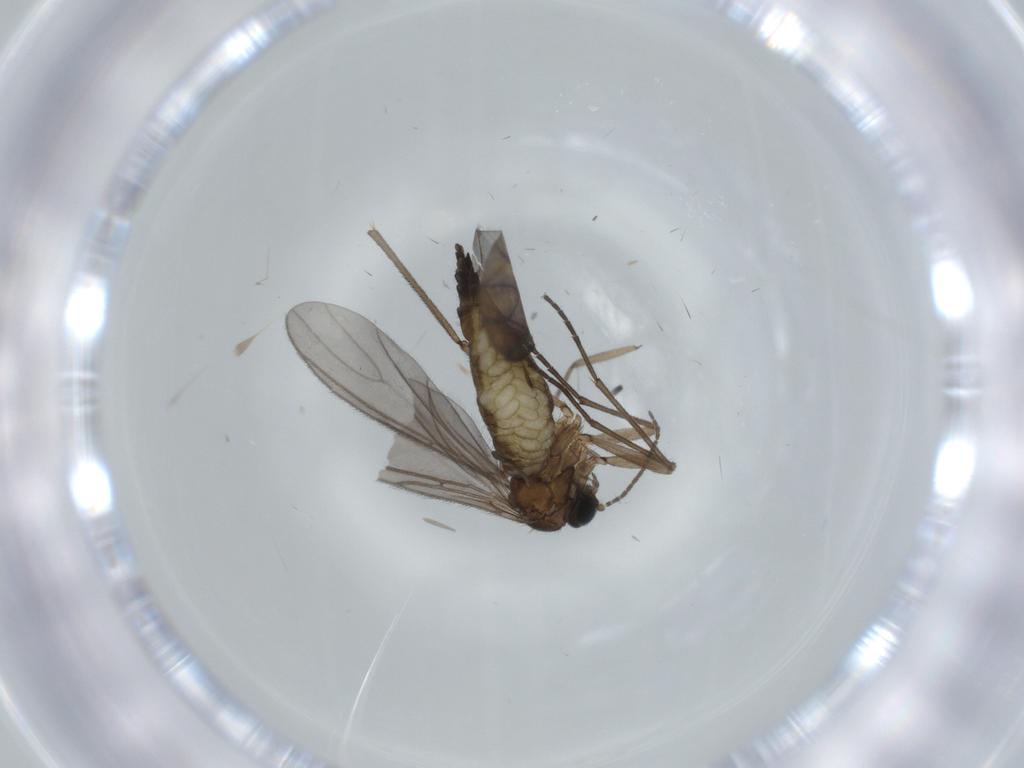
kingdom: Animalia
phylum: Arthropoda
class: Insecta
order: Diptera
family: Sciaridae
